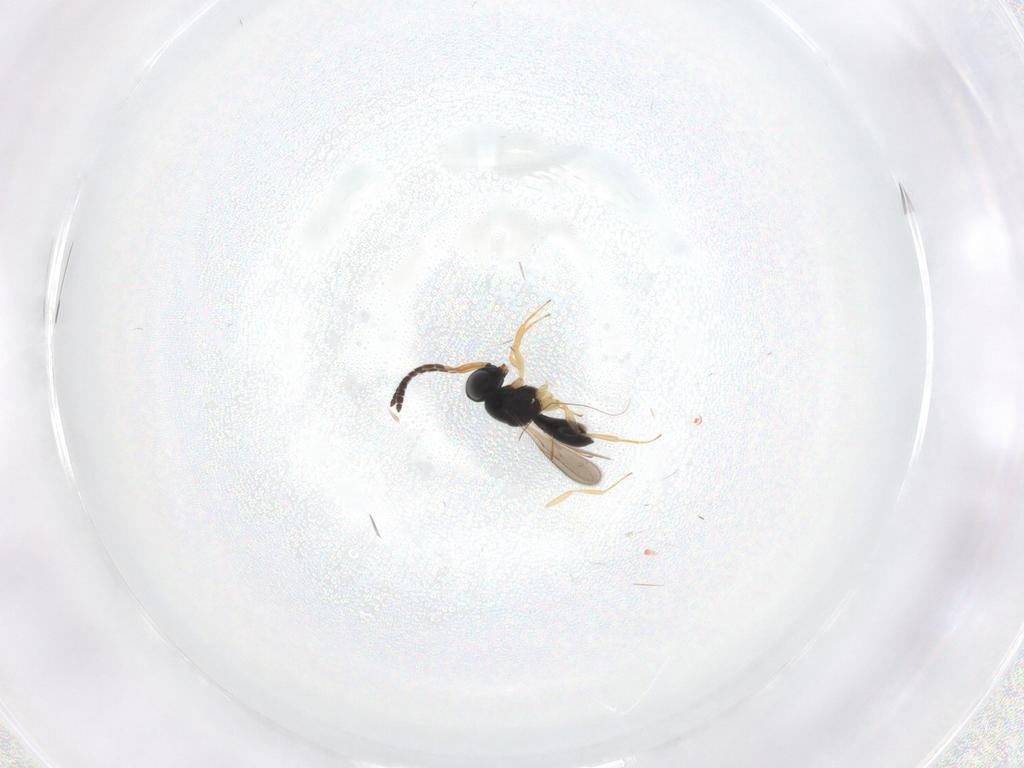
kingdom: Animalia
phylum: Arthropoda
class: Insecta
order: Hymenoptera
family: Scelionidae
